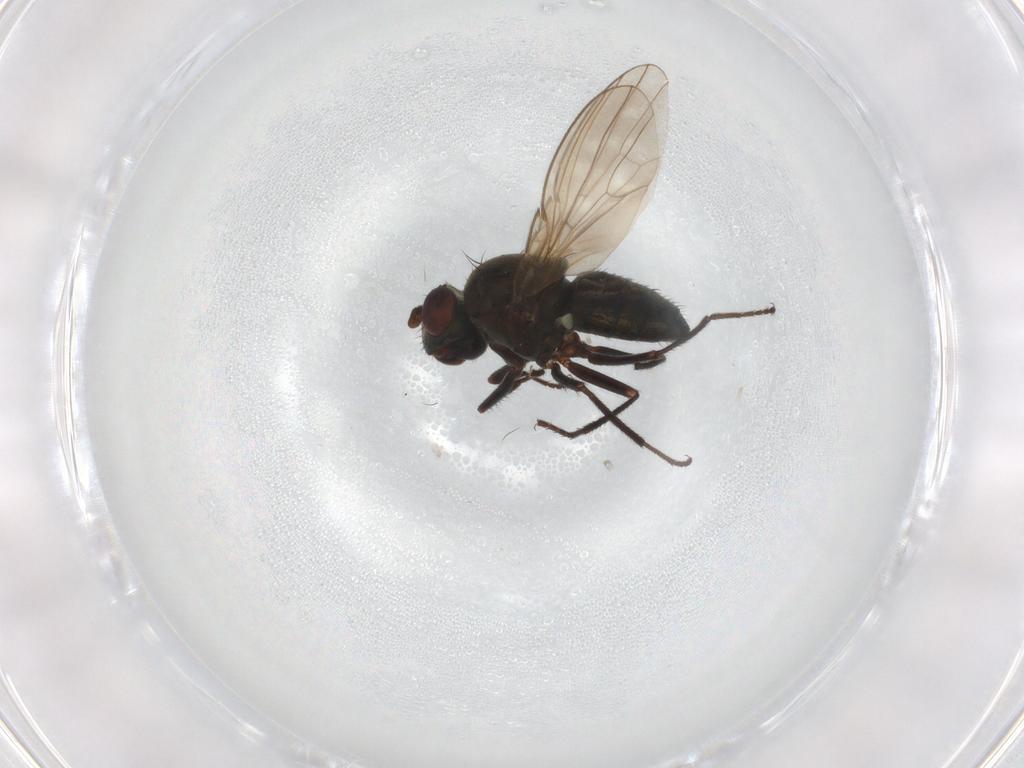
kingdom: Animalia
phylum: Arthropoda
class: Insecta
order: Diptera
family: Ephydridae
